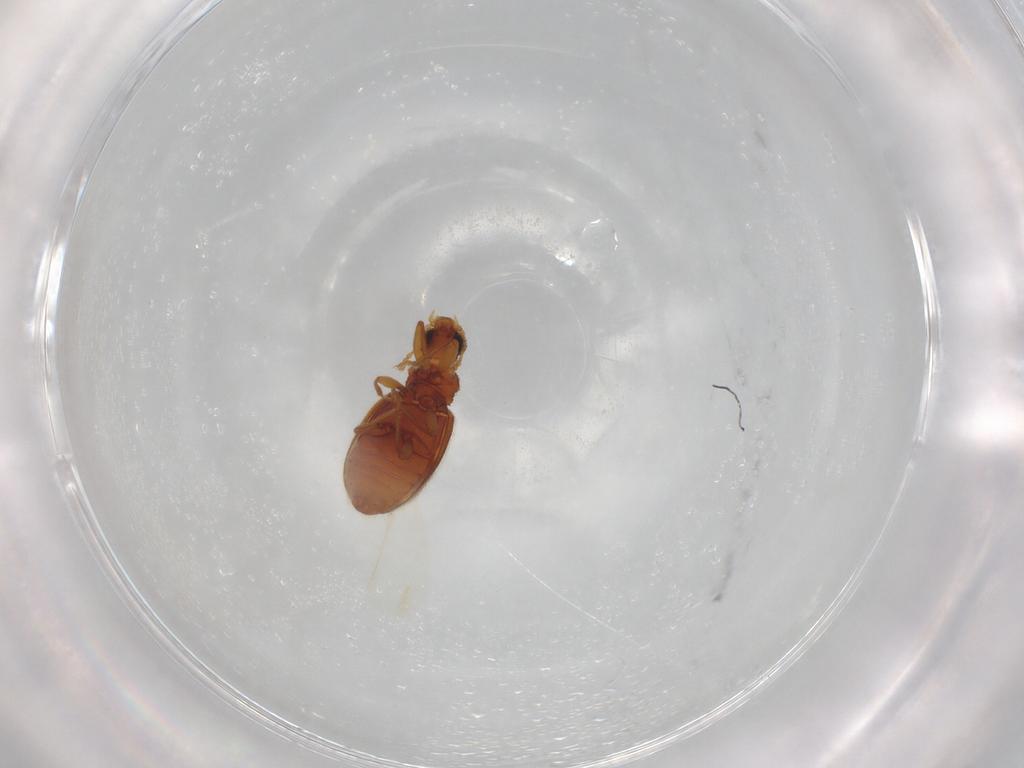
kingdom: Animalia
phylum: Arthropoda
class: Insecta
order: Coleoptera
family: Latridiidae
